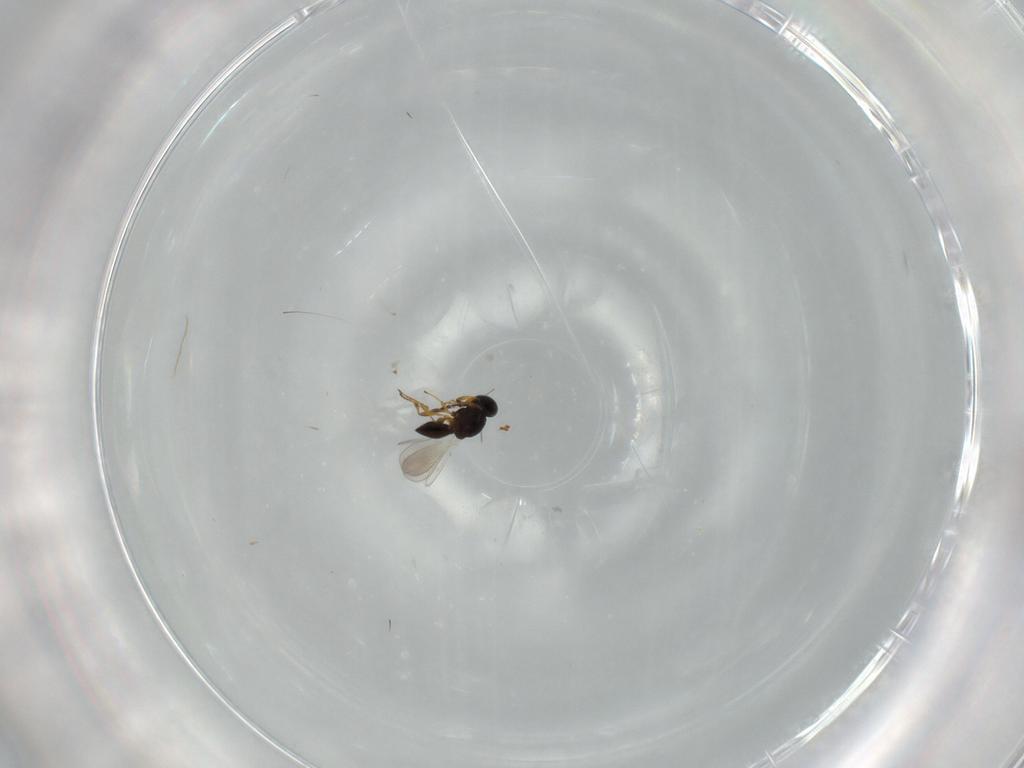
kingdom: Animalia
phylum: Arthropoda
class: Insecta
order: Hymenoptera
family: Platygastridae
